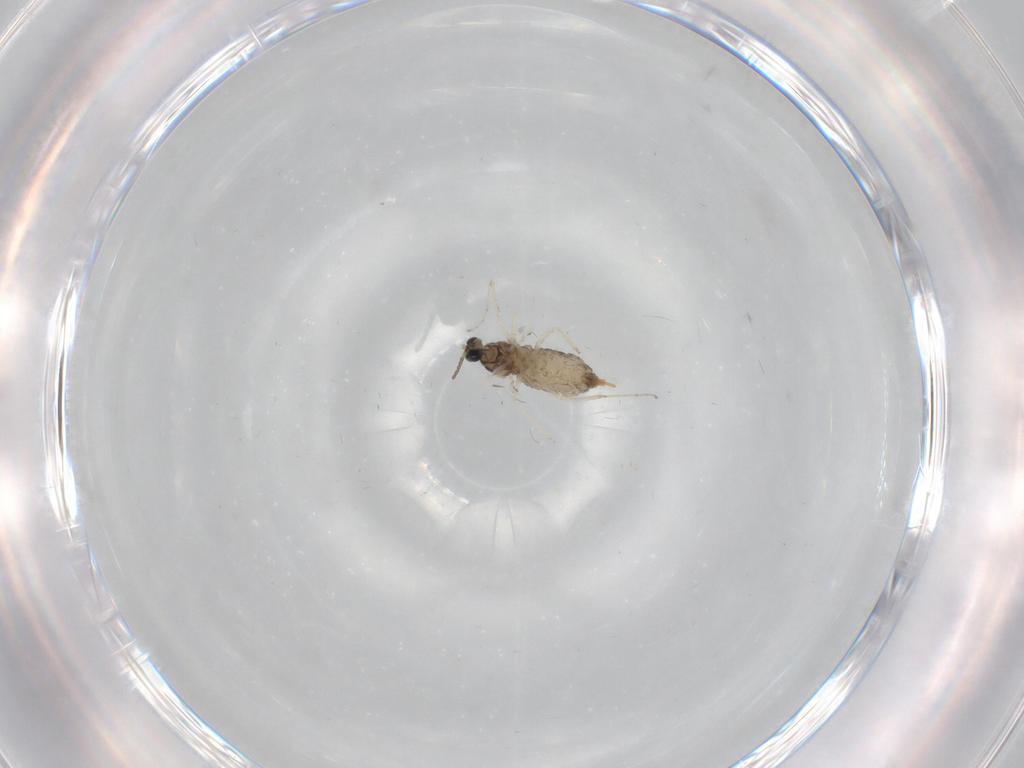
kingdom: Animalia
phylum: Arthropoda
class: Insecta
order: Diptera
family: Cecidomyiidae
